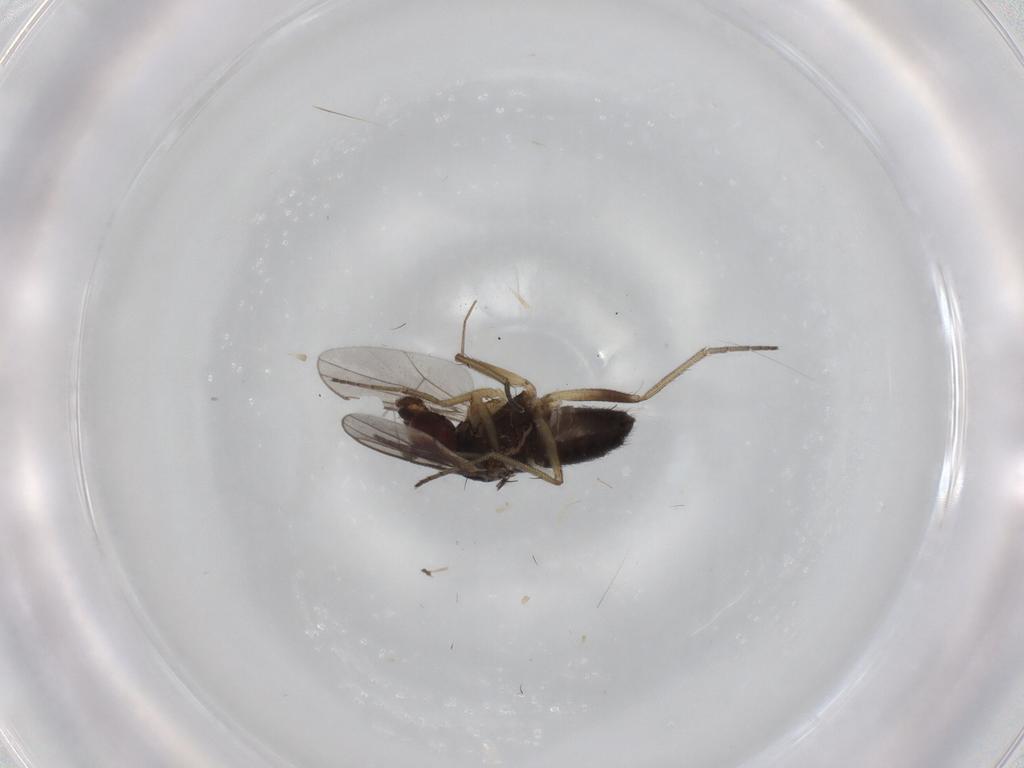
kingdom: Animalia
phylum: Arthropoda
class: Insecta
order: Diptera
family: Dolichopodidae
